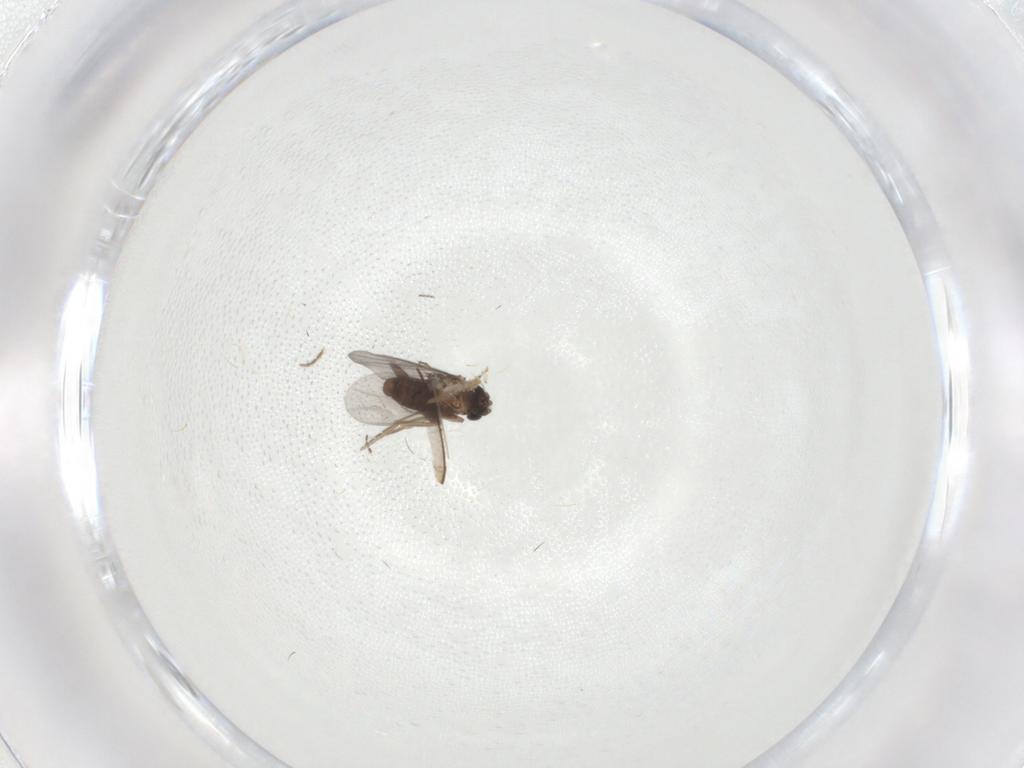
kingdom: Animalia
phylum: Arthropoda
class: Insecta
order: Diptera
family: Cecidomyiidae
